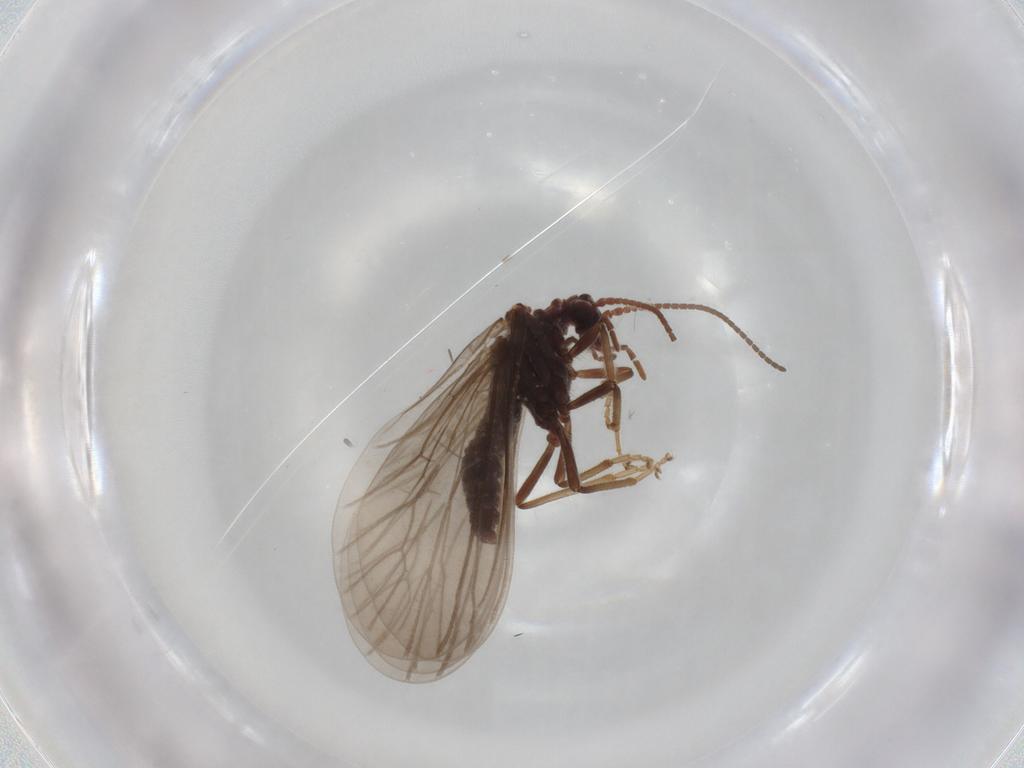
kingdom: Animalia
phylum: Arthropoda
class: Insecta
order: Neuroptera
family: Coniopterygidae
